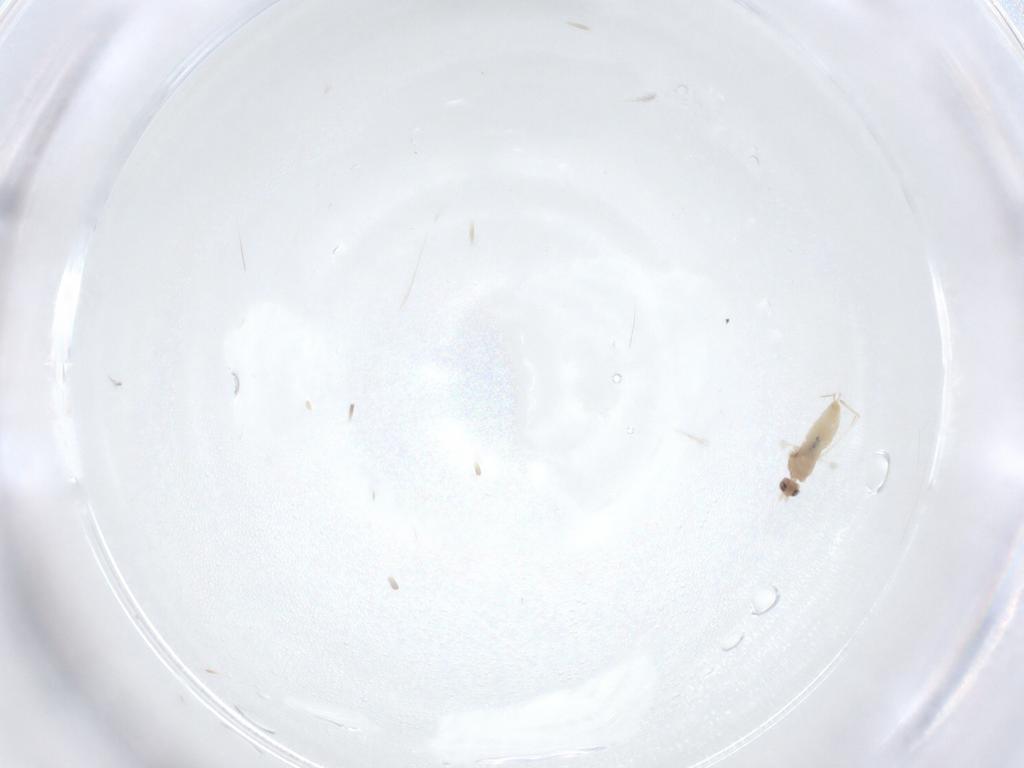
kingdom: Animalia
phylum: Arthropoda
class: Insecta
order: Diptera
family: Cecidomyiidae
